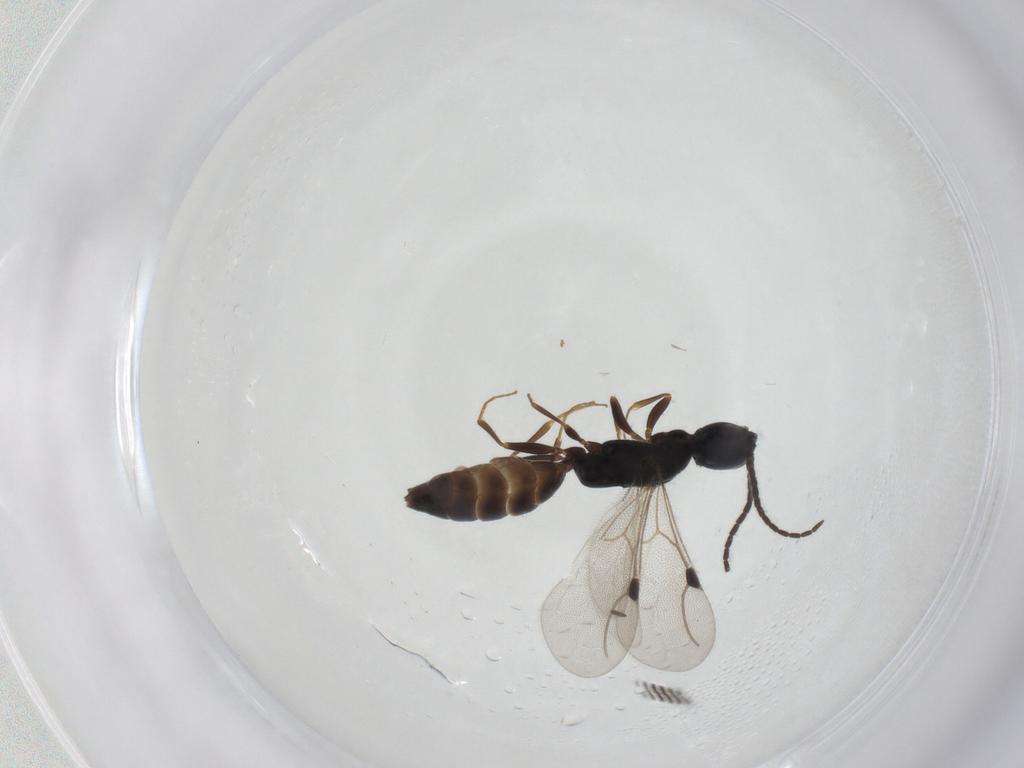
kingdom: Animalia
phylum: Arthropoda
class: Insecta
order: Hymenoptera
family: Bethylidae
